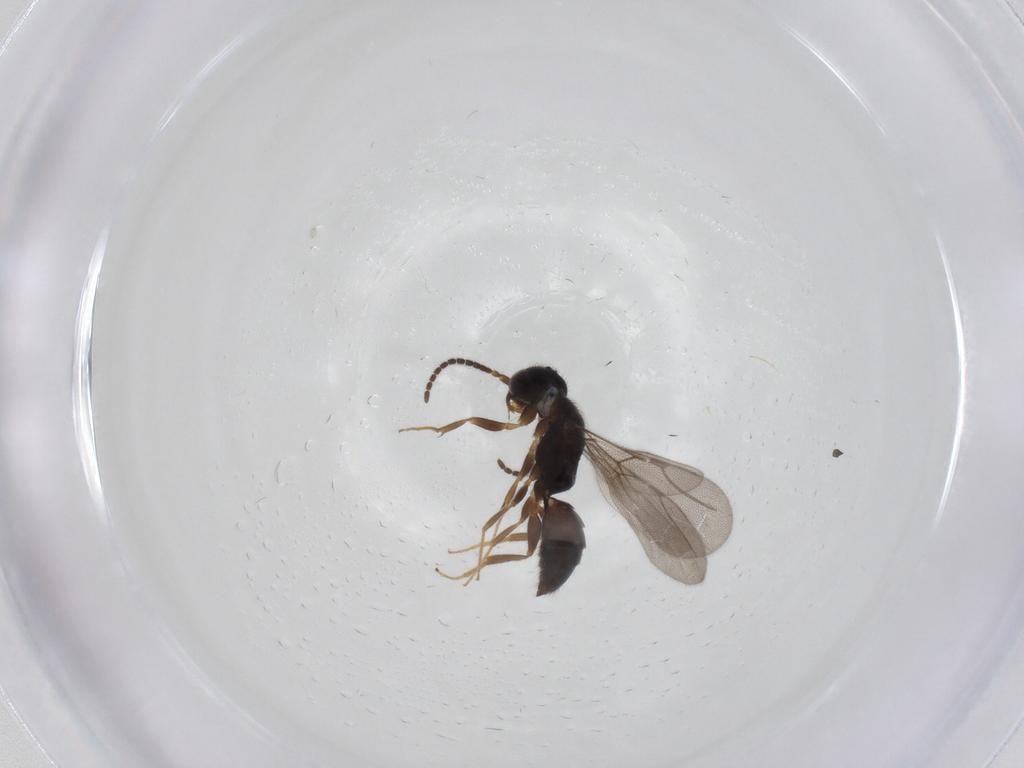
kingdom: Animalia
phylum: Arthropoda
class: Insecta
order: Hymenoptera
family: Bethylidae
